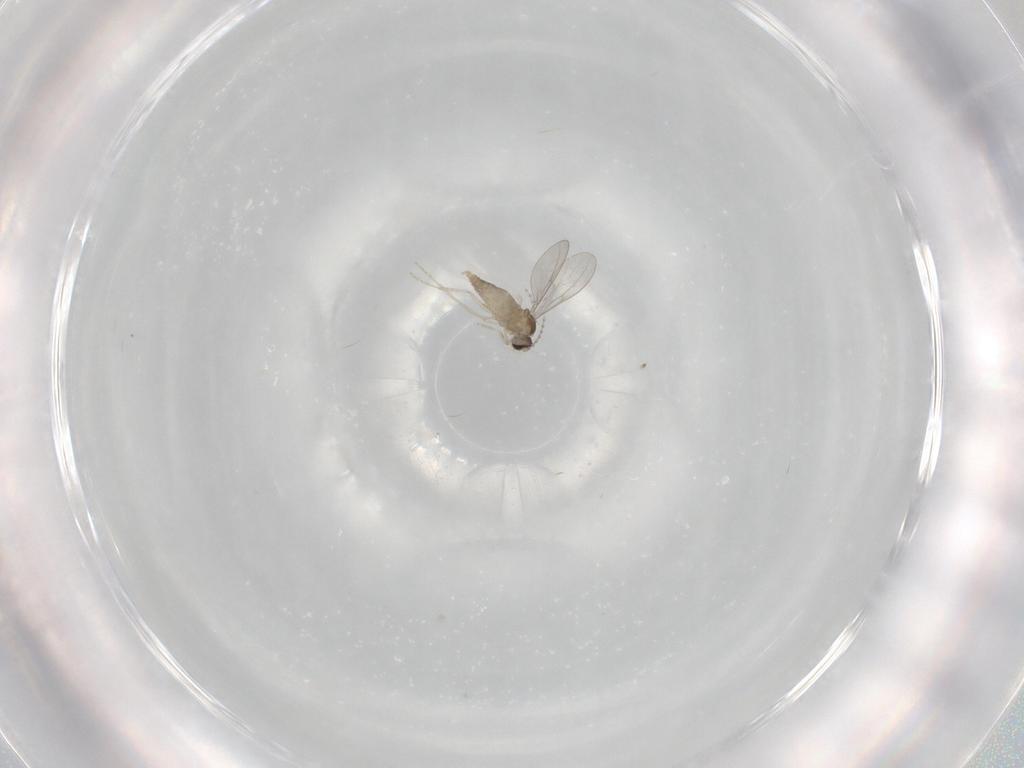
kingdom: Animalia
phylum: Arthropoda
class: Insecta
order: Diptera
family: Cecidomyiidae
